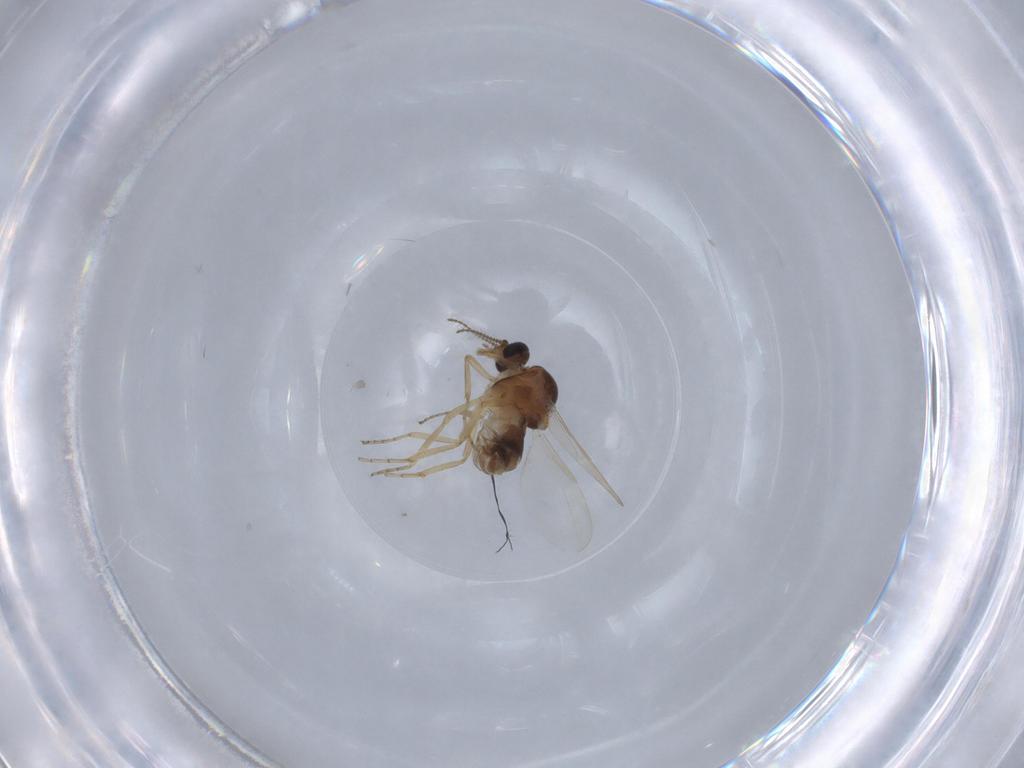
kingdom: Animalia
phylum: Arthropoda
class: Insecta
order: Diptera
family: Ceratopogonidae
